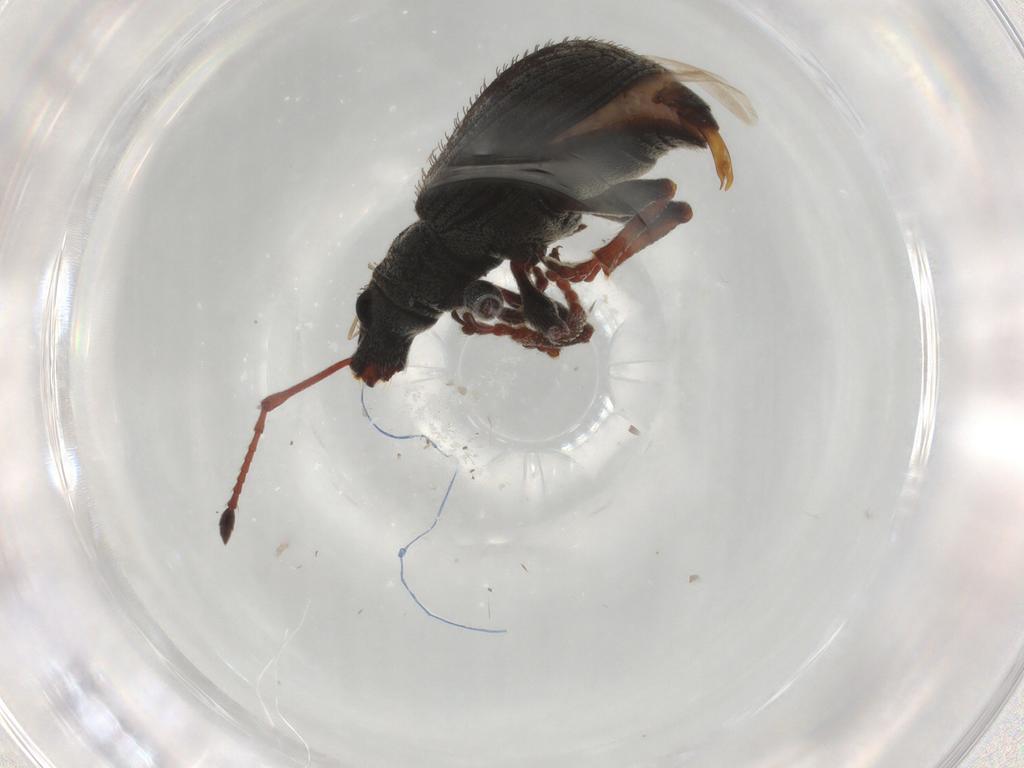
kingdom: Animalia
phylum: Arthropoda
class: Insecta
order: Coleoptera
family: Curculionidae
